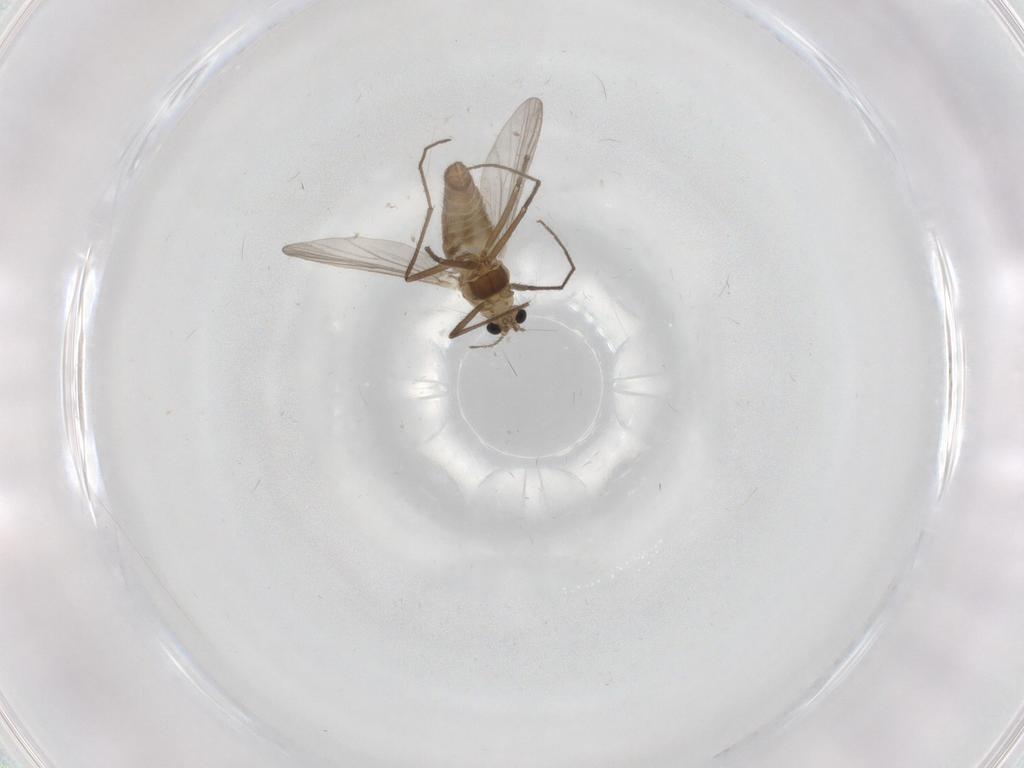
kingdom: Animalia
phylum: Arthropoda
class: Insecta
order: Diptera
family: Chironomidae
